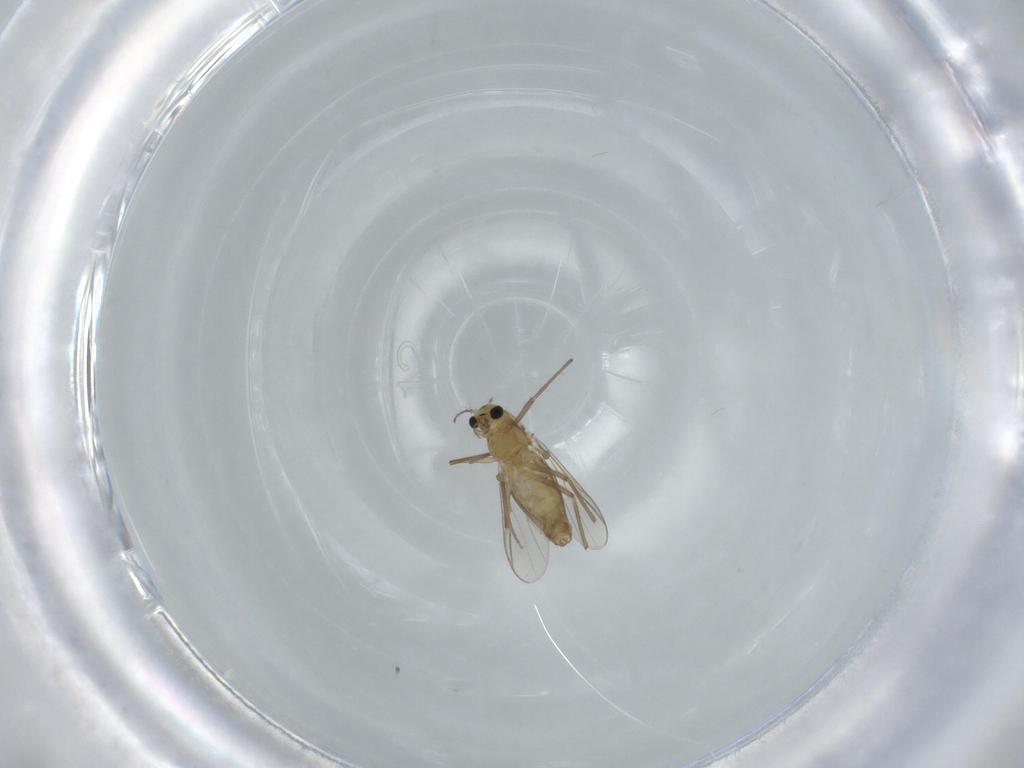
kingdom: Animalia
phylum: Arthropoda
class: Insecta
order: Diptera
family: Chironomidae
